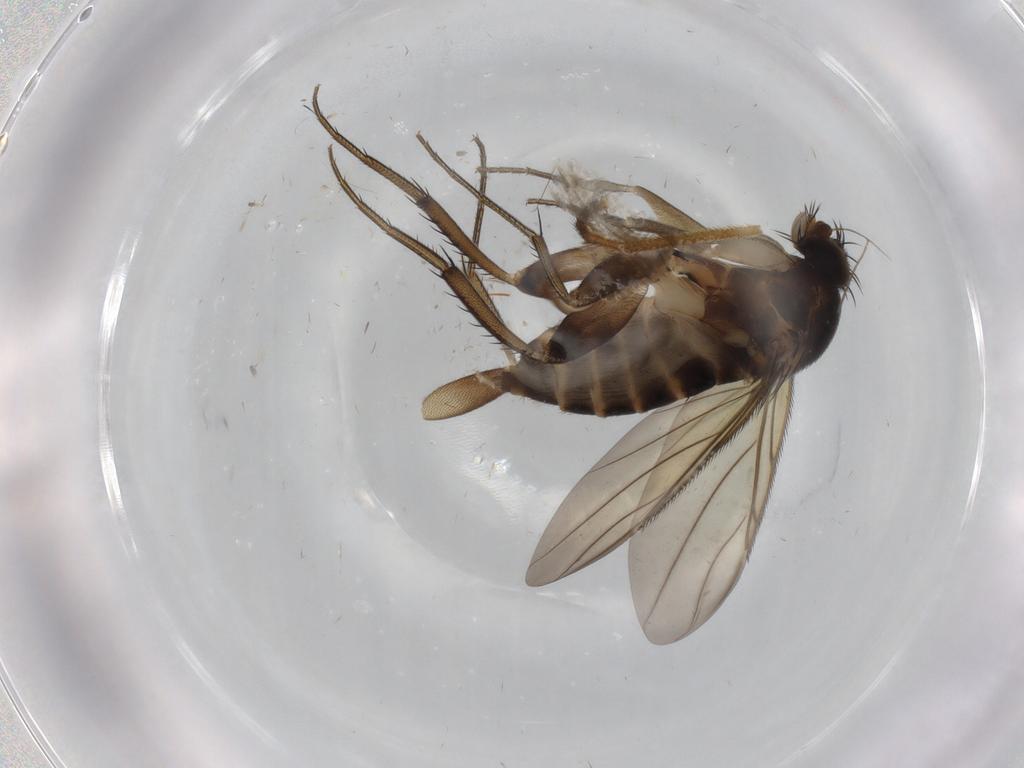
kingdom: Animalia
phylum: Arthropoda
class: Insecta
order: Diptera
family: Phoridae
